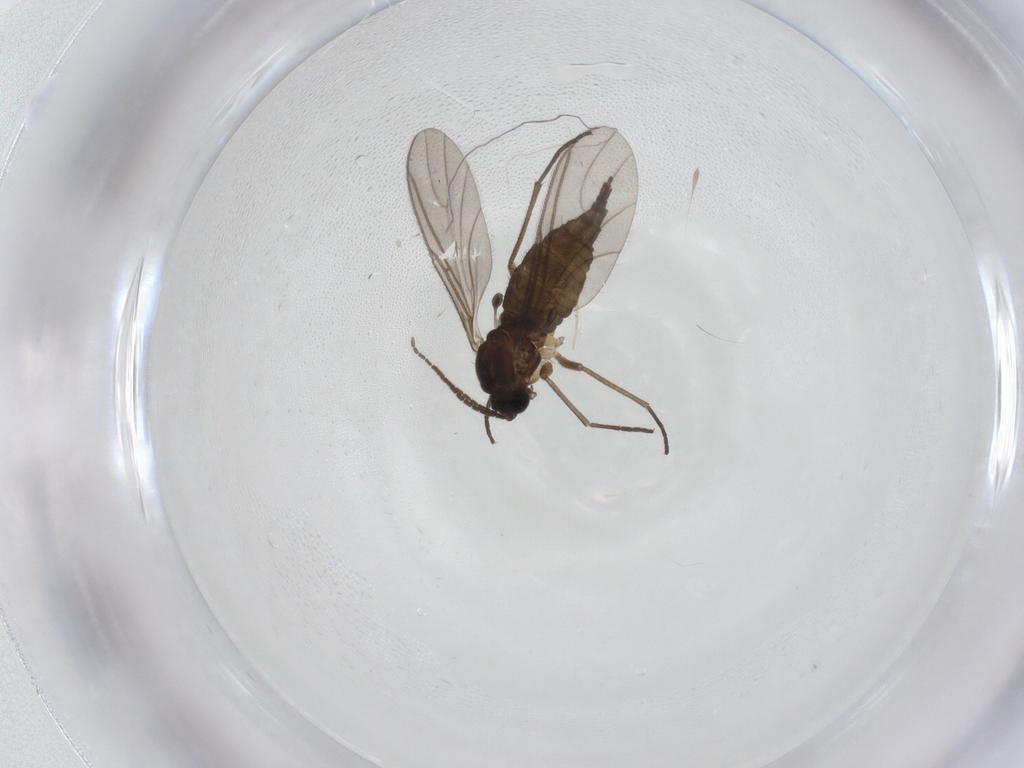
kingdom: Animalia
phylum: Arthropoda
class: Insecta
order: Diptera
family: Sciaridae
